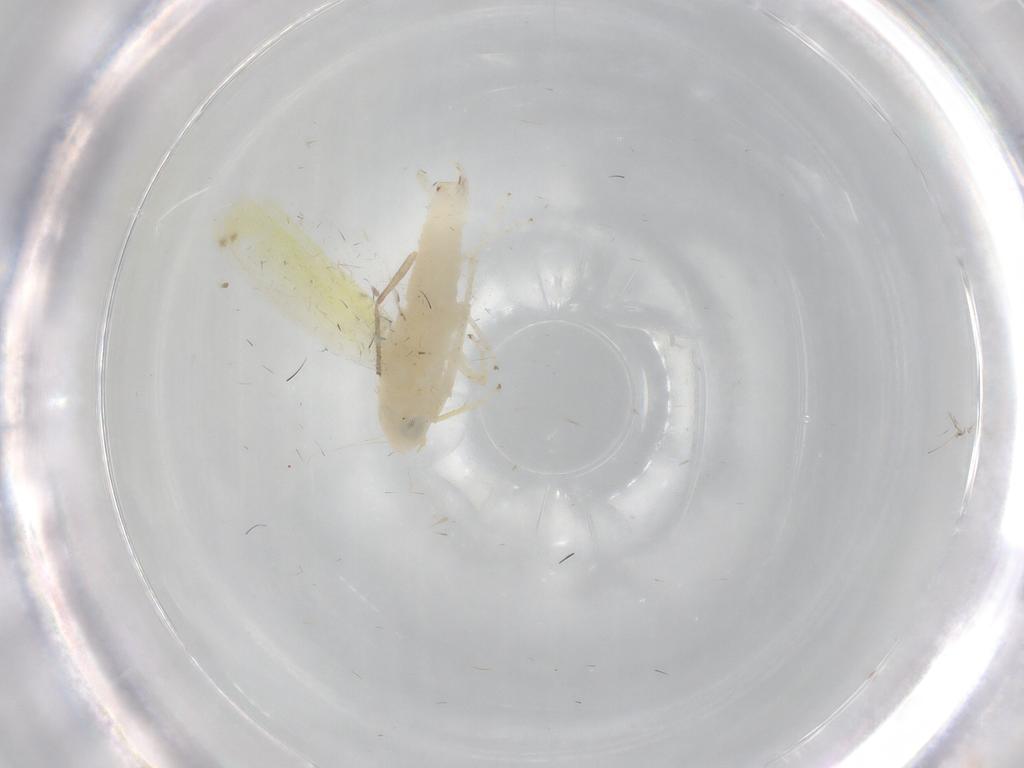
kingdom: Animalia
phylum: Arthropoda
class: Insecta
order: Hemiptera
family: Cicadellidae
